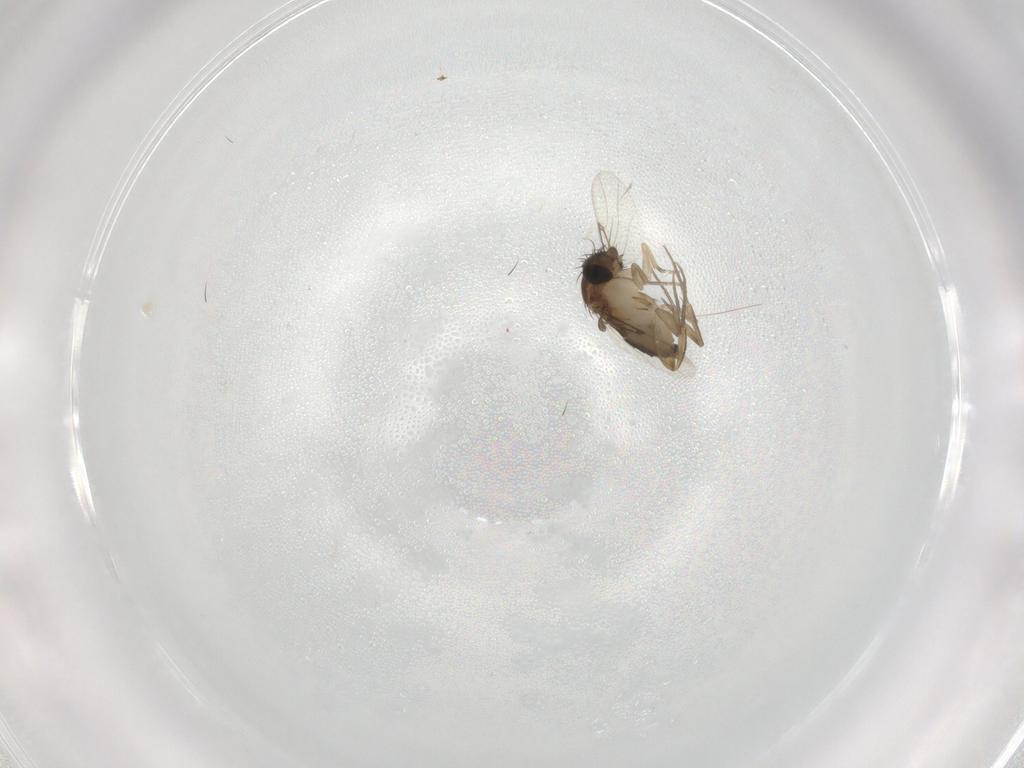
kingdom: Animalia
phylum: Arthropoda
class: Insecta
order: Diptera
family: Phoridae
